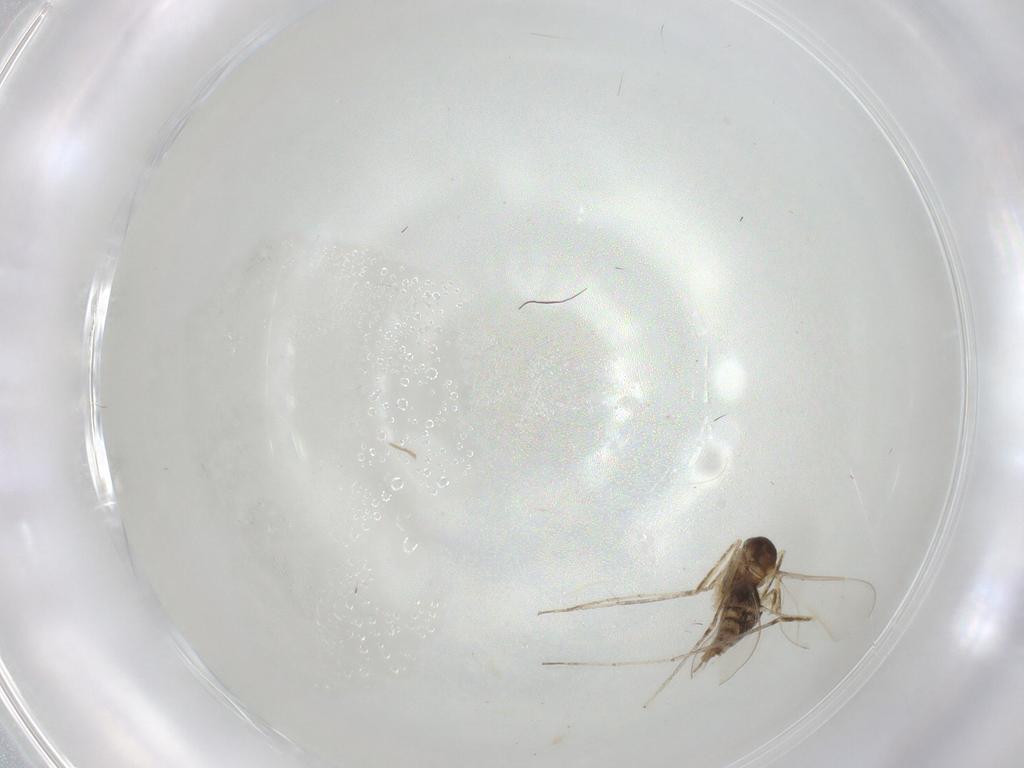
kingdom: Animalia
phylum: Arthropoda
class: Insecta
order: Diptera
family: Cecidomyiidae
